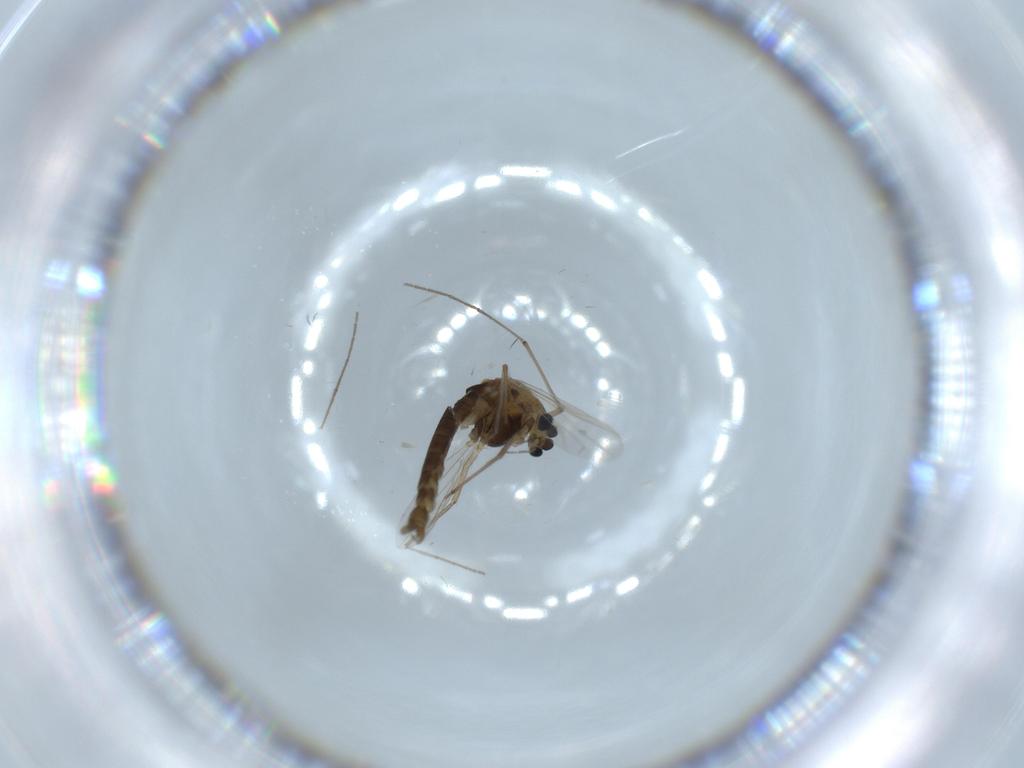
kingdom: Animalia
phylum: Arthropoda
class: Insecta
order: Diptera
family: Chironomidae
